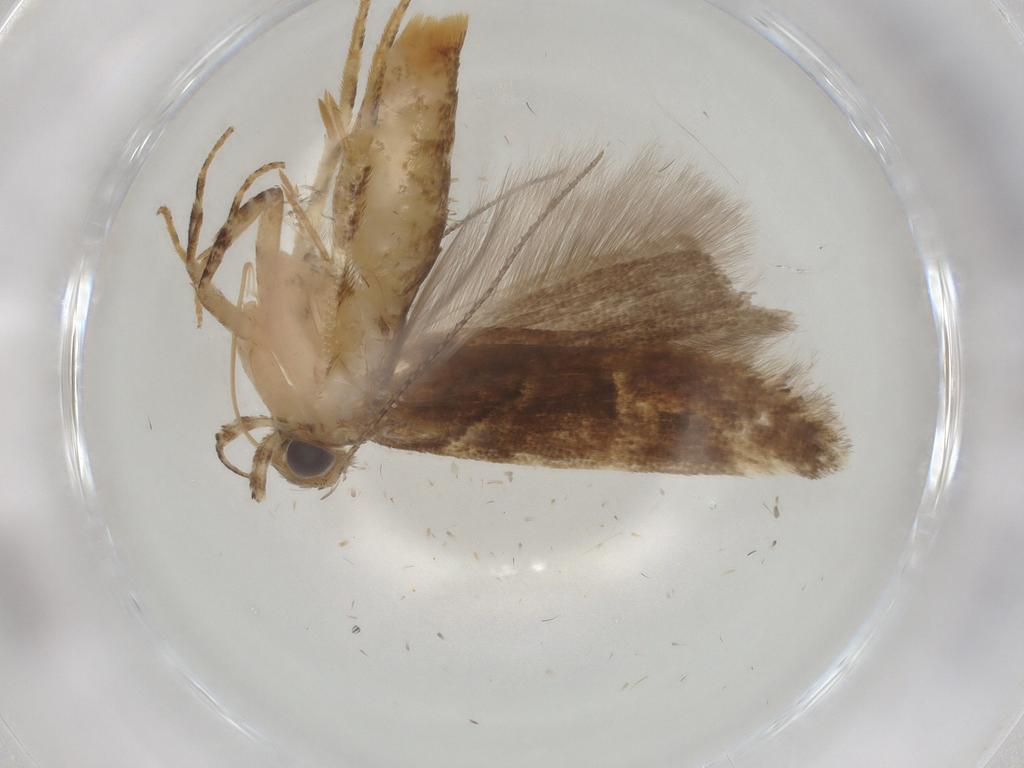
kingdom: Animalia
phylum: Arthropoda
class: Insecta
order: Lepidoptera
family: Gelechiidae
